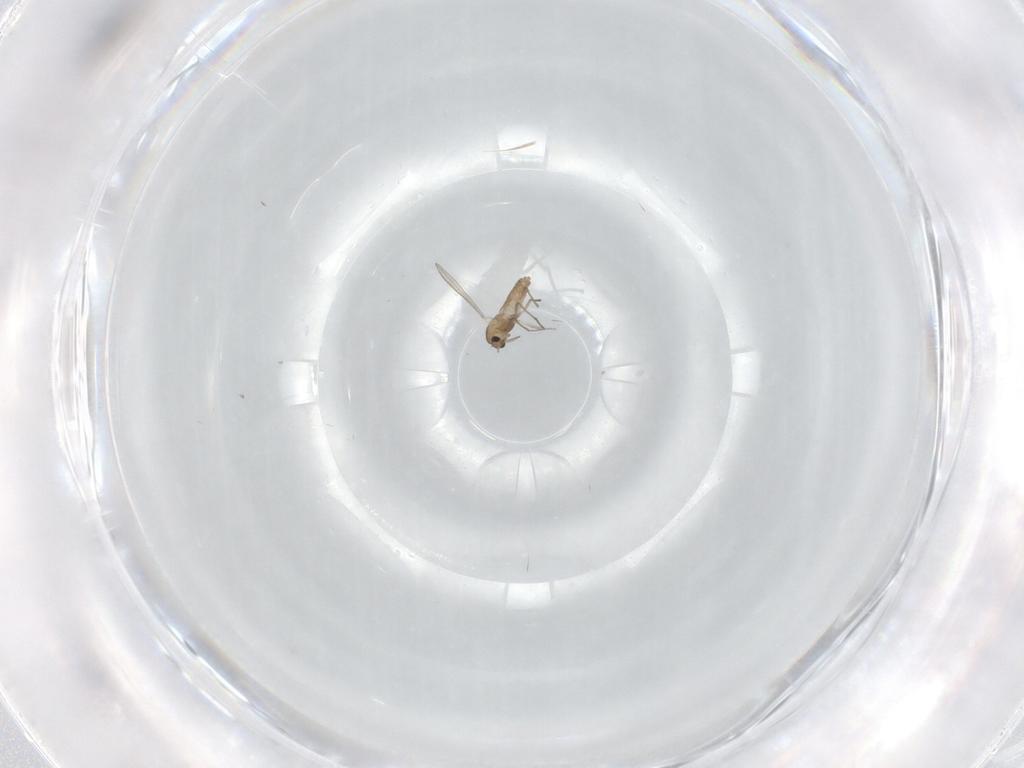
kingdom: Animalia
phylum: Arthropoda
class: Insecta
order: Diptera
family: Chironomidae
